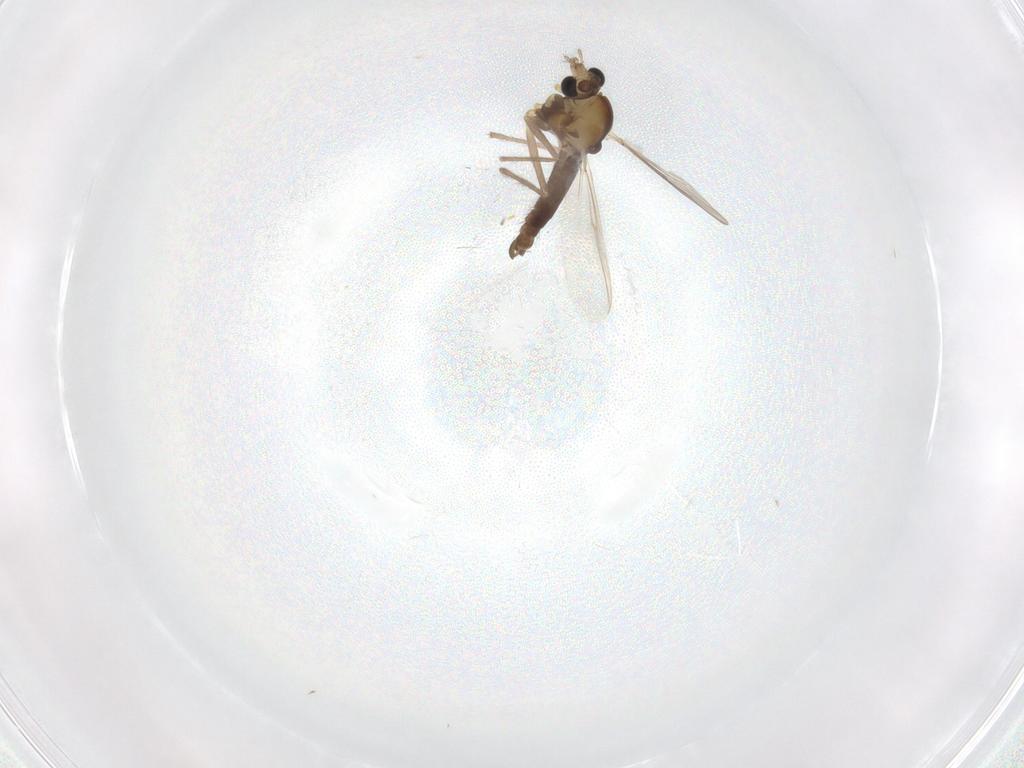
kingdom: Animalia
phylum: Arthropoda
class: Insecta
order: Diptera
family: Chironomidae
